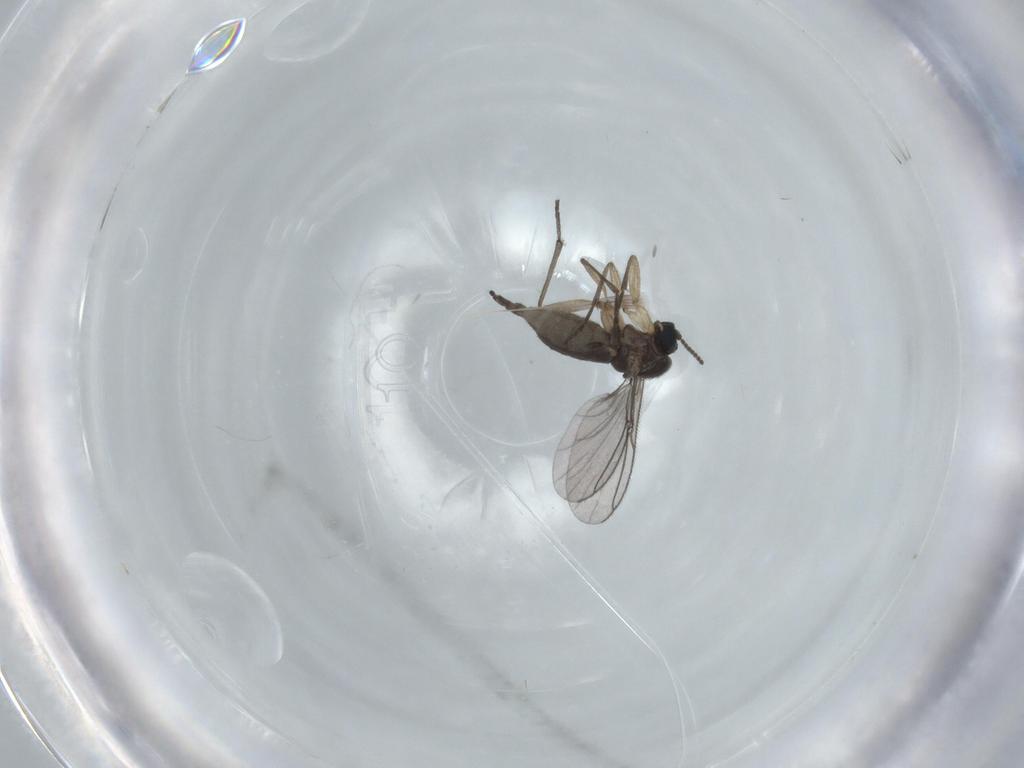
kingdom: Animalia
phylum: Arthropoda
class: Insecta
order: Diptera
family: Sciaridae
